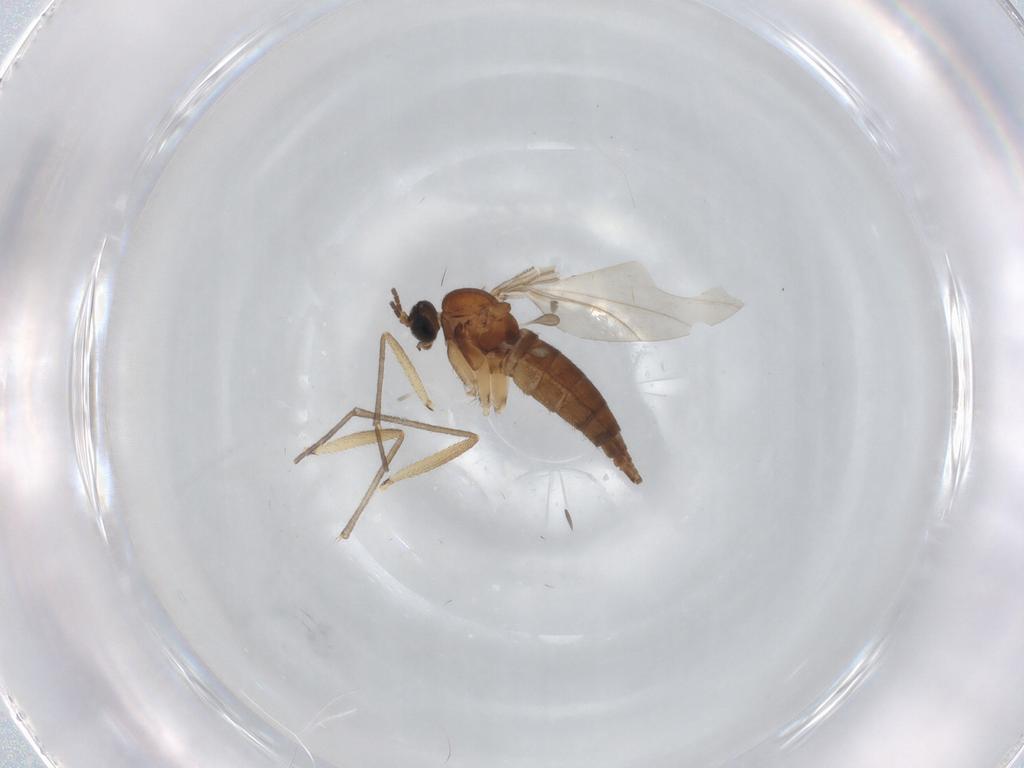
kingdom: Animalia
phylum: Arthropoda
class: Insecta
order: Diptera
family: Sciaridae
